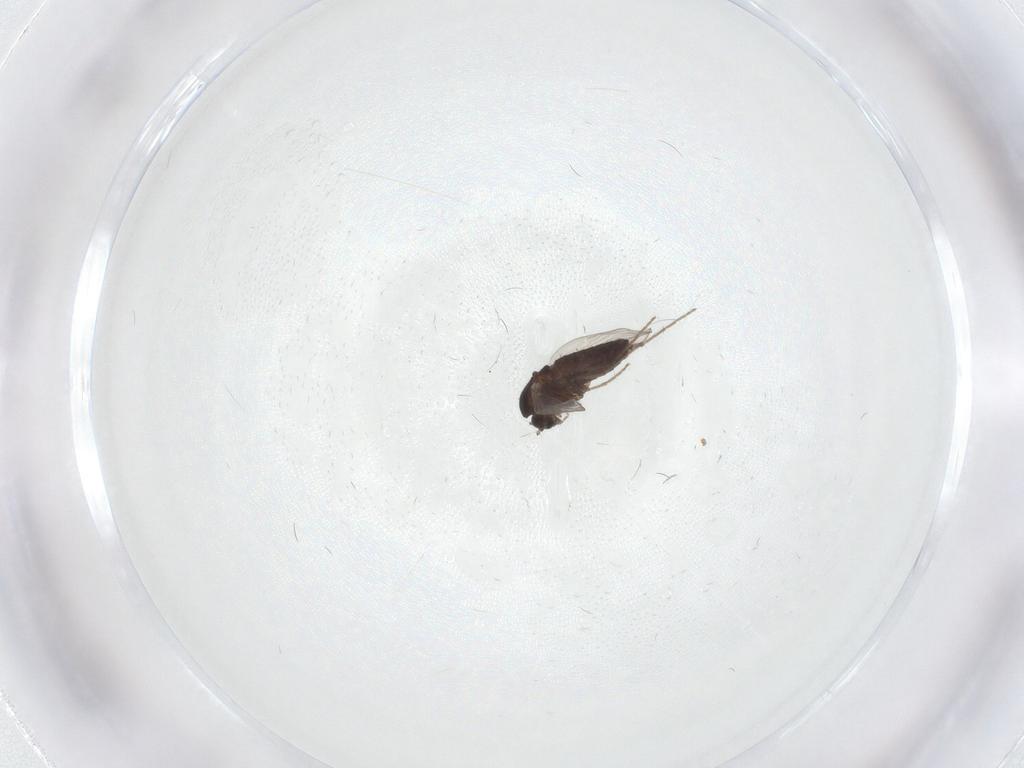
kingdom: Animalia
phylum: Arthropoda
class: Insecta
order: Diptera
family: Chironomidae
